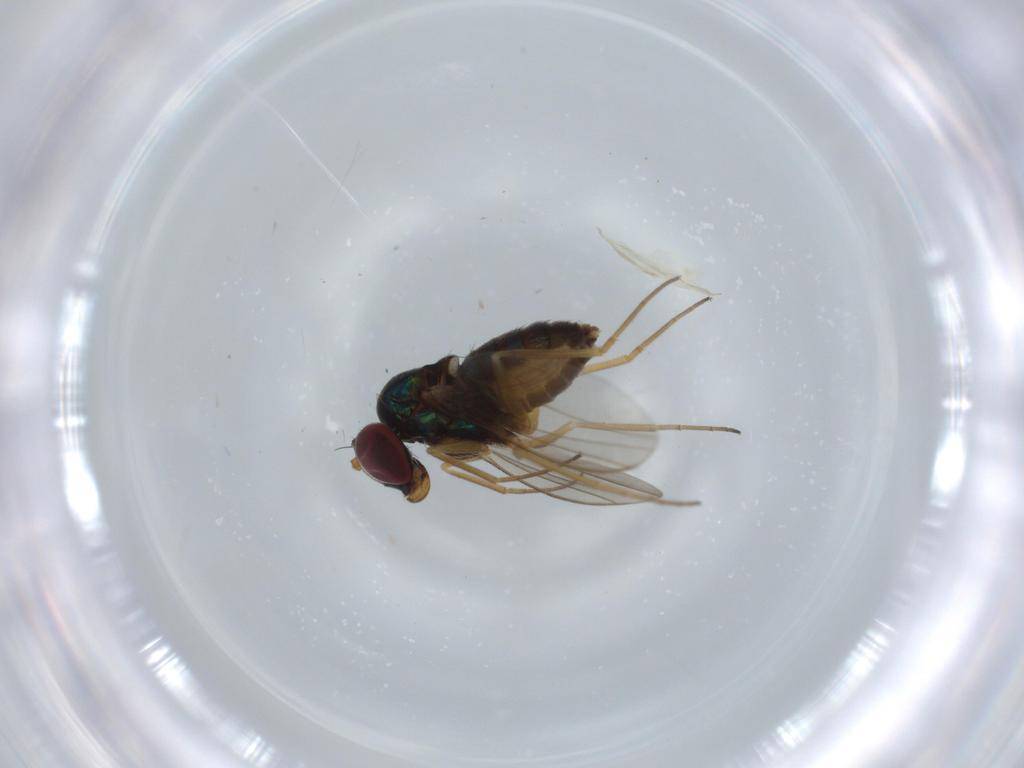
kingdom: Animalia
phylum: Arthropoda
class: Insecta
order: Diptera
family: Dolichopodidae
